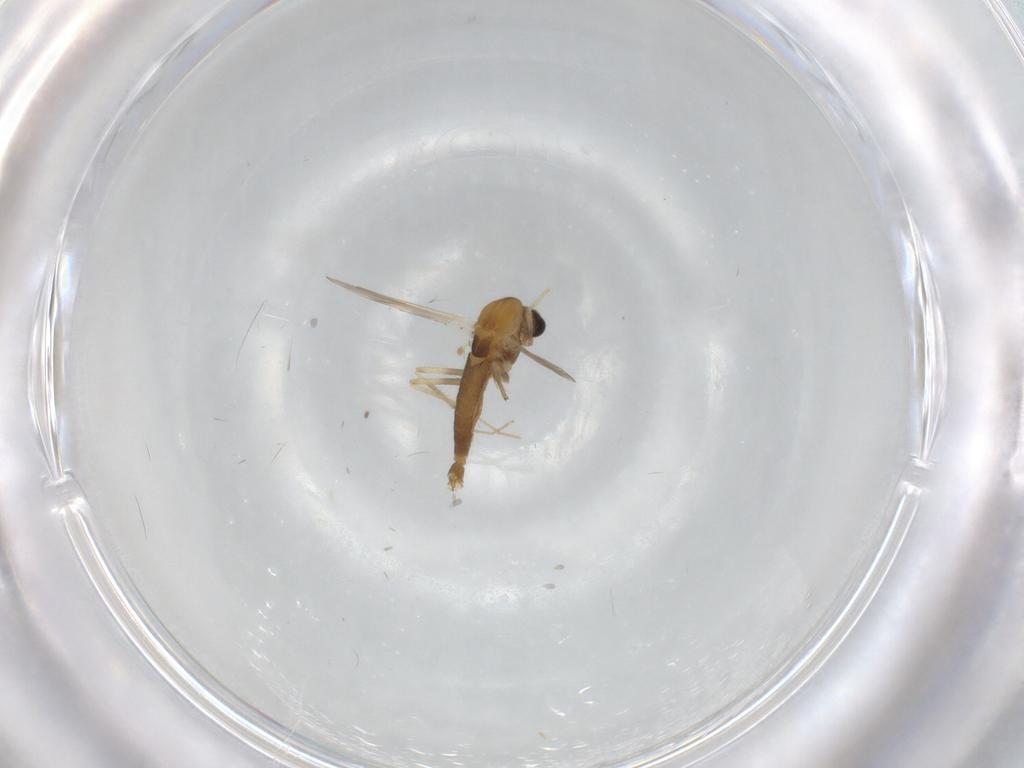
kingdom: Animalia
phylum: Arthropoda
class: Insecta
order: Diptera
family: Chironomidae
